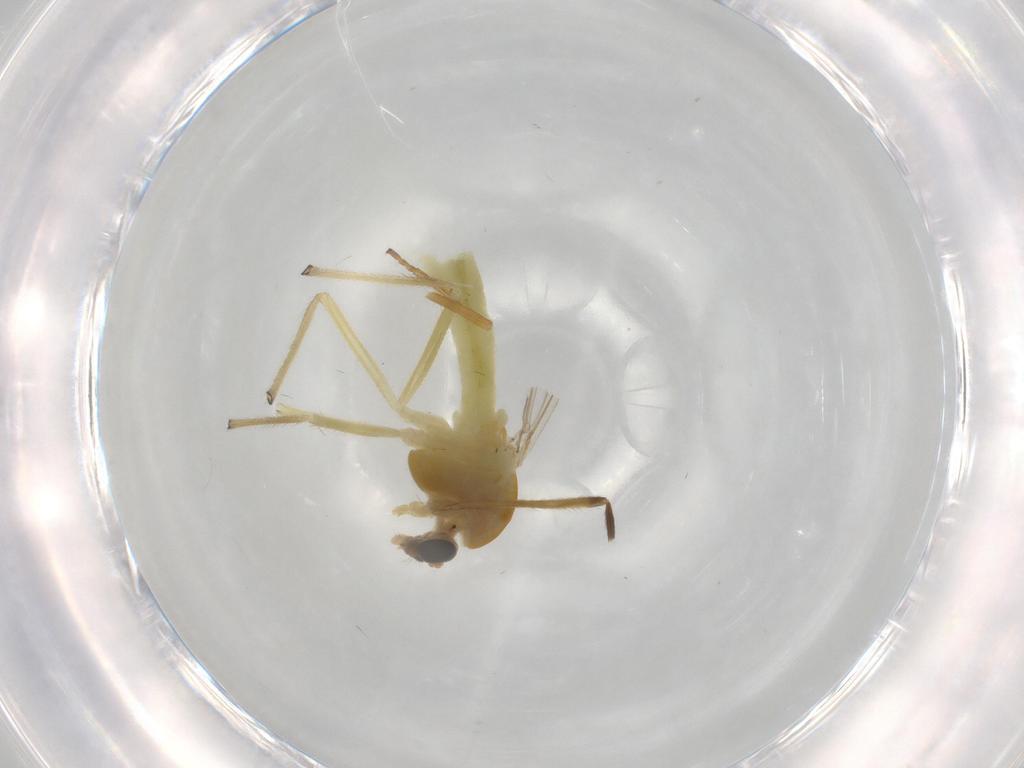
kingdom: Animalia
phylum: Arthropoda
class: Insecta
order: Diptera
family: Chironomidae
